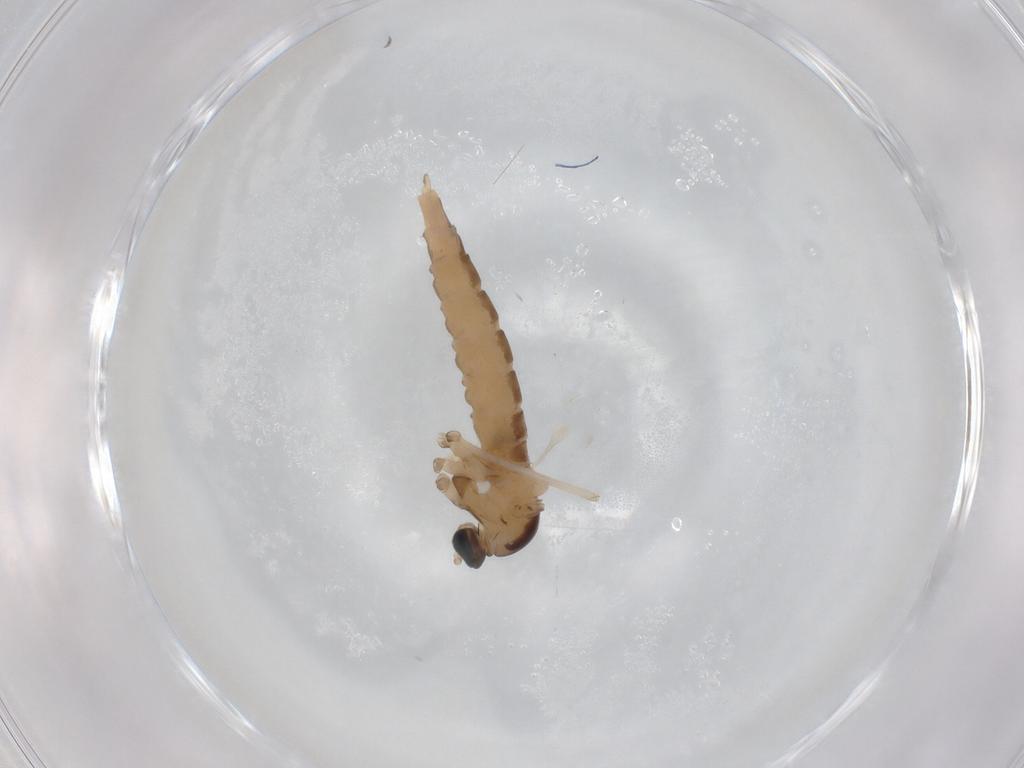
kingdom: Animalia
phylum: Arthropoda
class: Insecta
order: Diptera
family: Cecidomyiidae
